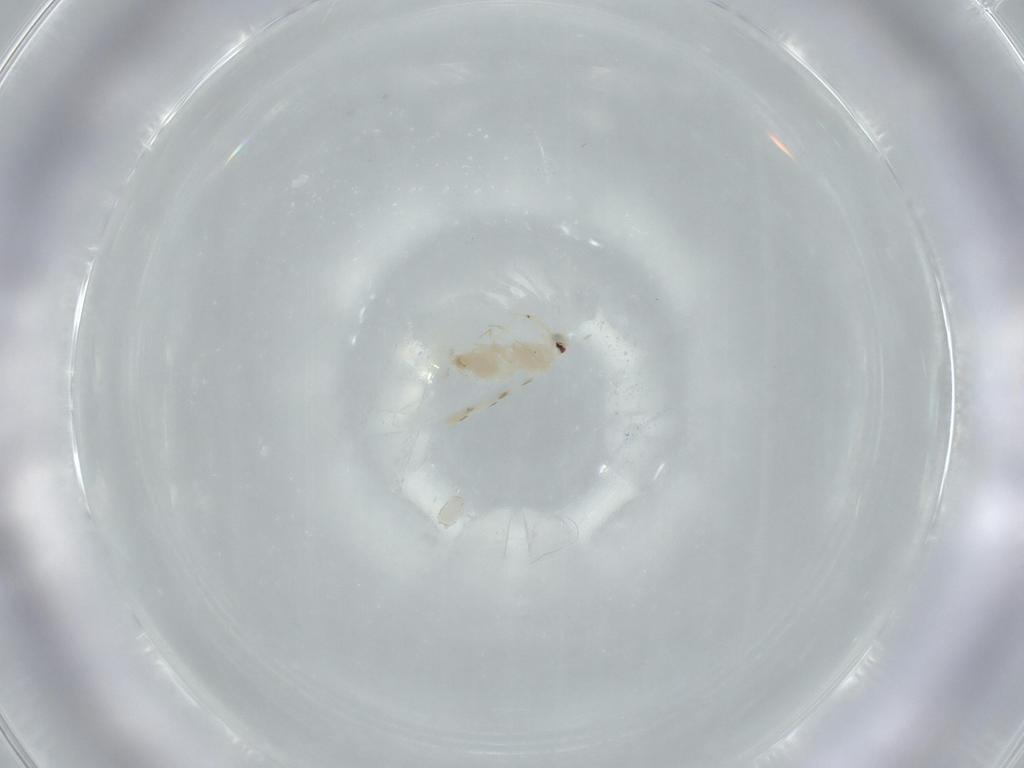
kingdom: Animalia
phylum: Arthropoda
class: Insecta
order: Hemiptera
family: Aleyrodidae
